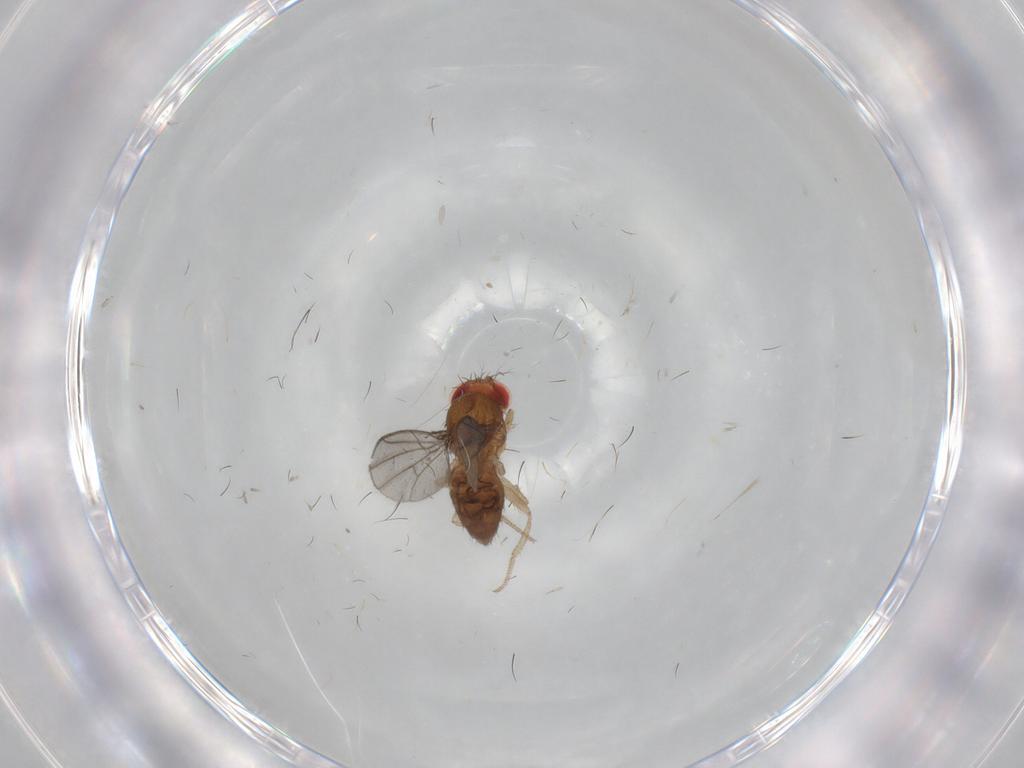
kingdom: Animalia
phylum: Arthropoda
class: Insecta
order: Diptera
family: Drosophilidae
